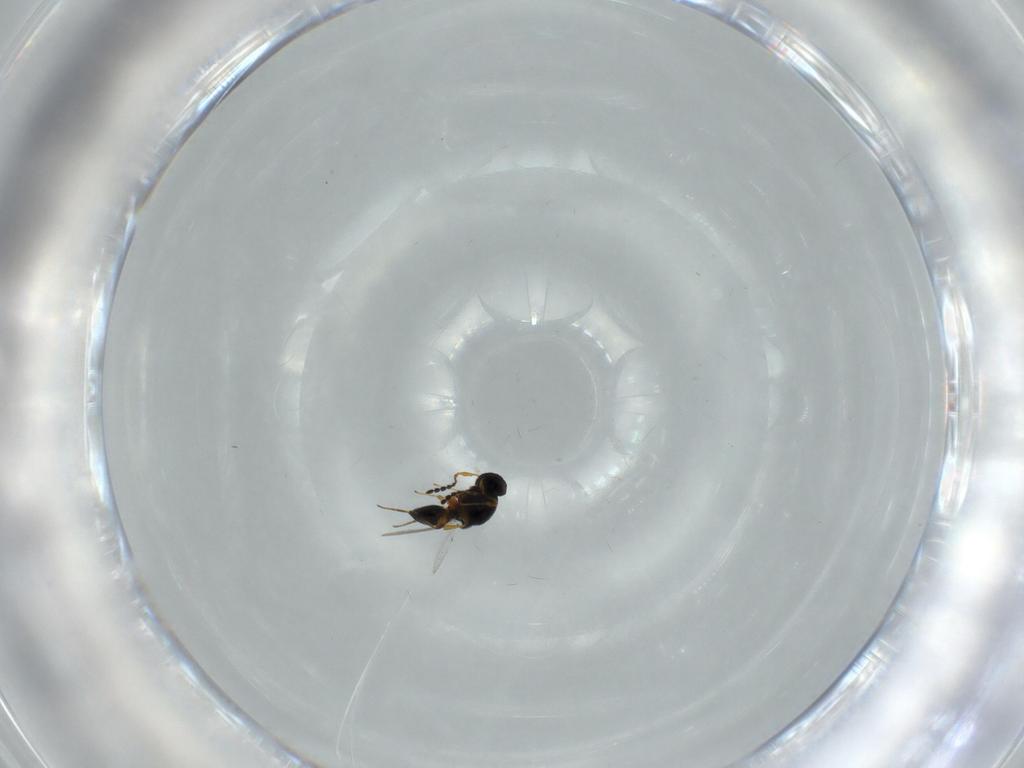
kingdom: Animalia
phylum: Arthropoda
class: Insecta
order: Hymenoptera
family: Platygastridae
